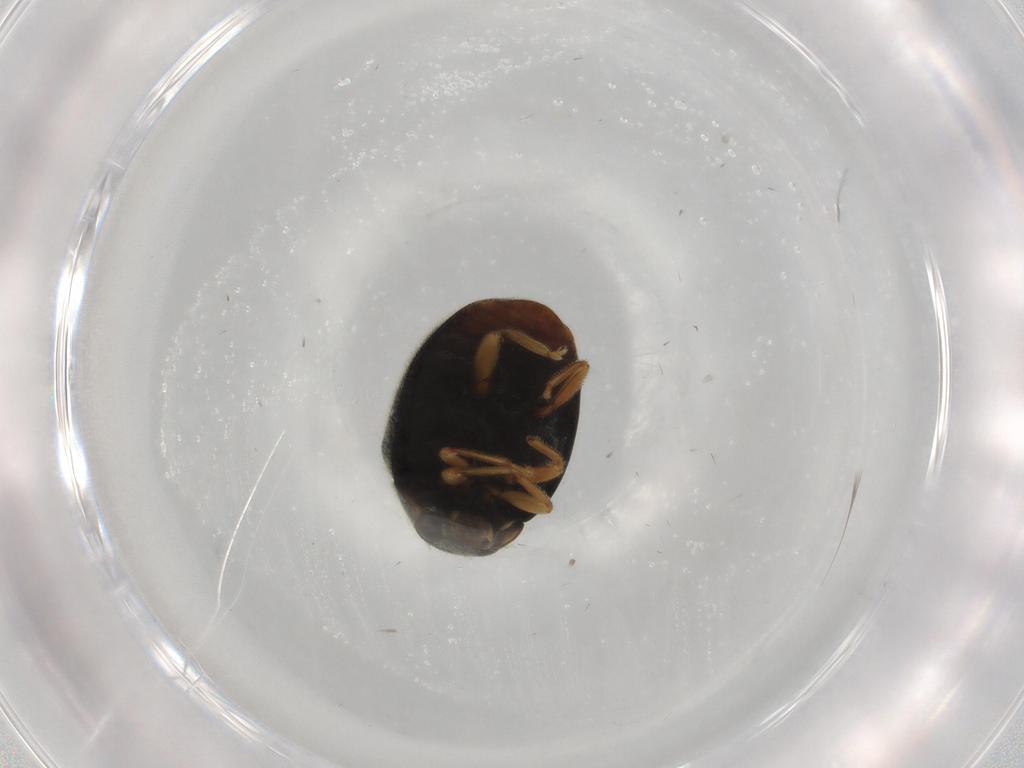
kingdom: Animalia
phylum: Arthropoda
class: Insecta
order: Coleoptera
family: Coccinellidae
